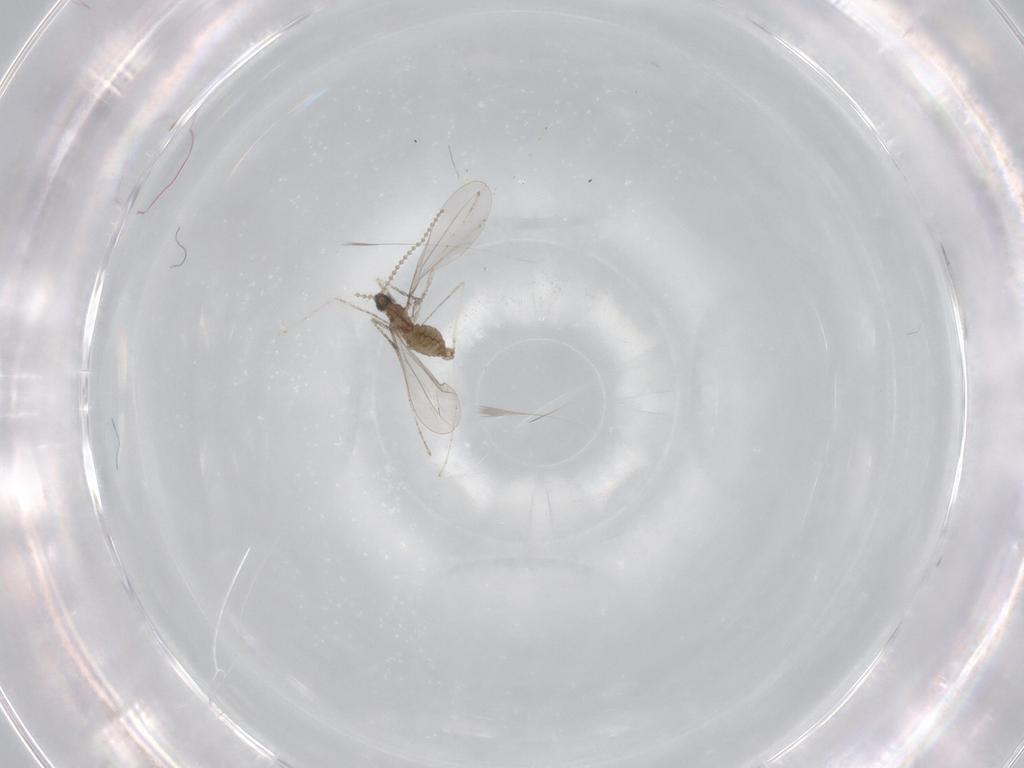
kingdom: Animalia
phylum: Arthropoda
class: Insecta
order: Diptera
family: Cecidomyiidae
